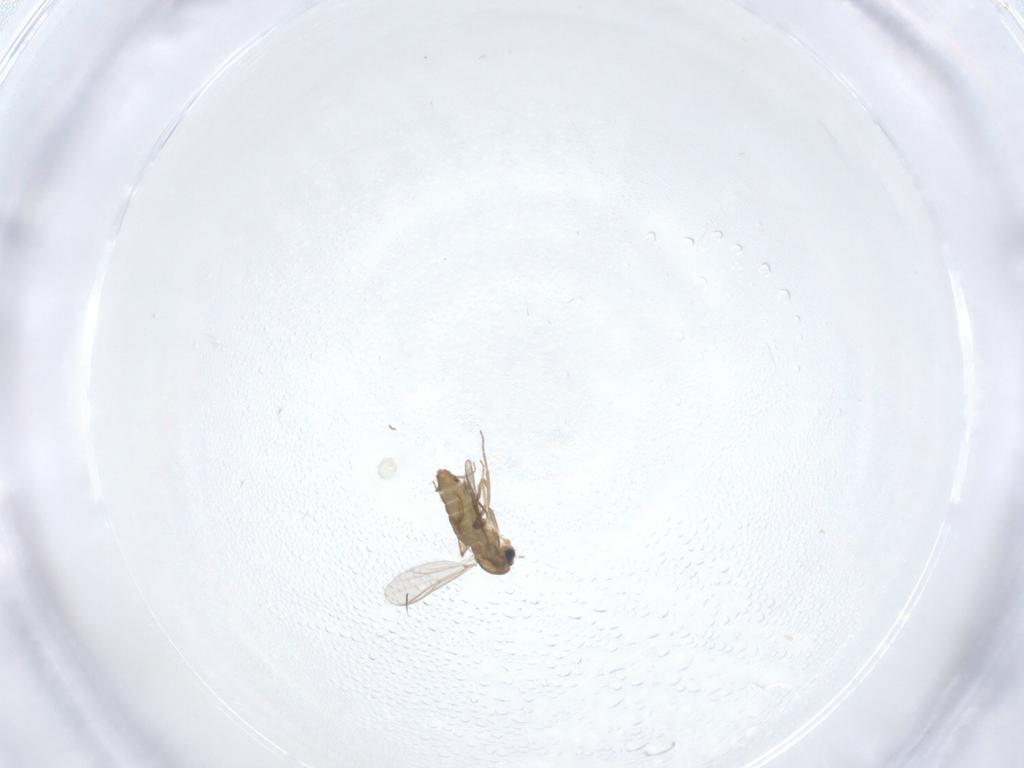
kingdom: Animalia
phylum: Arthropoda
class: Insecta
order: Diptera
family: Chironomidae
